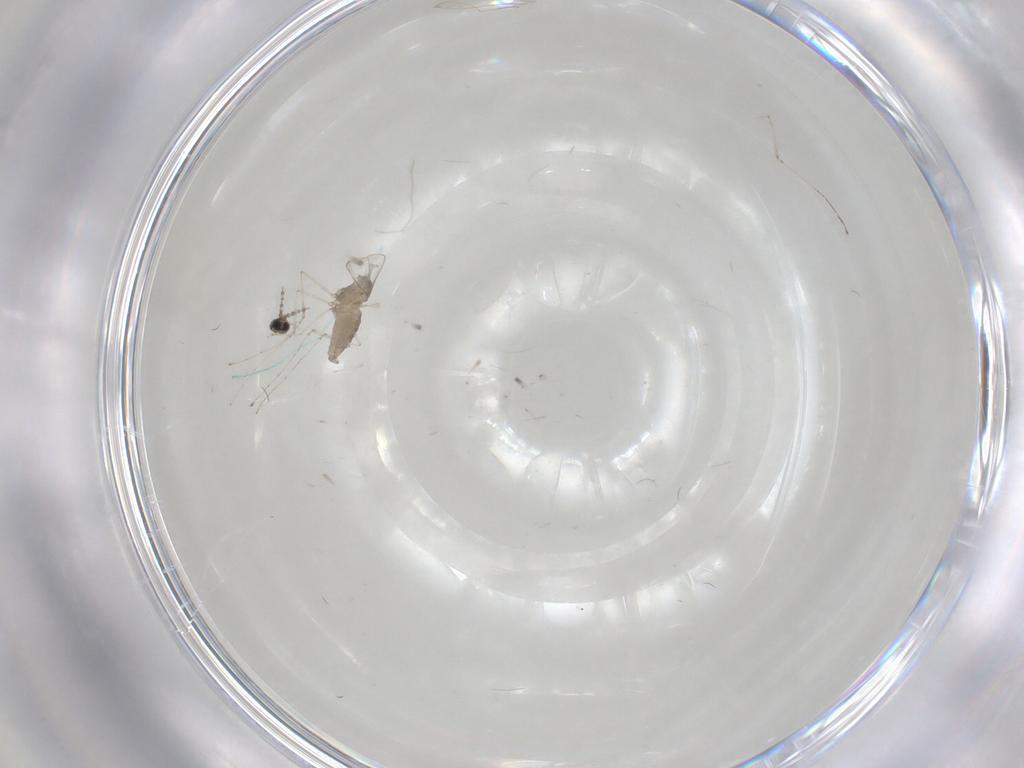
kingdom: Animalia
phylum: Arthropoda
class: Insecta
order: Diptera
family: Cecidomyiidae
